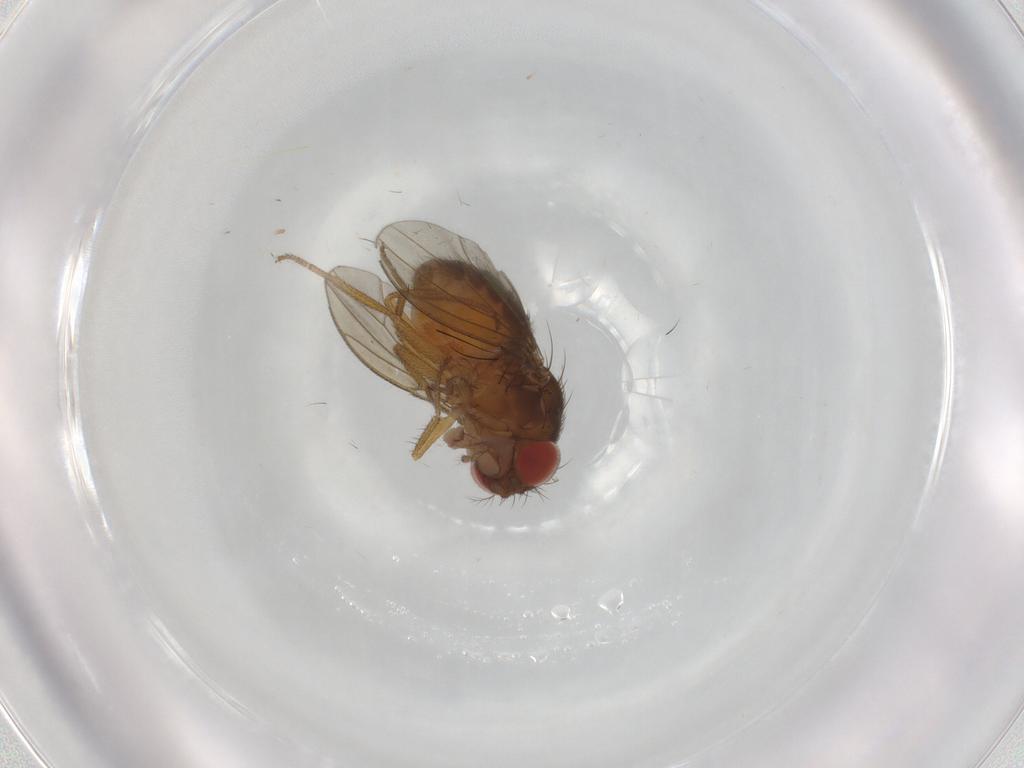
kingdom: Animalia
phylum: Arthropoda
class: Insecta
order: Diptera
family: Drosophilidae
